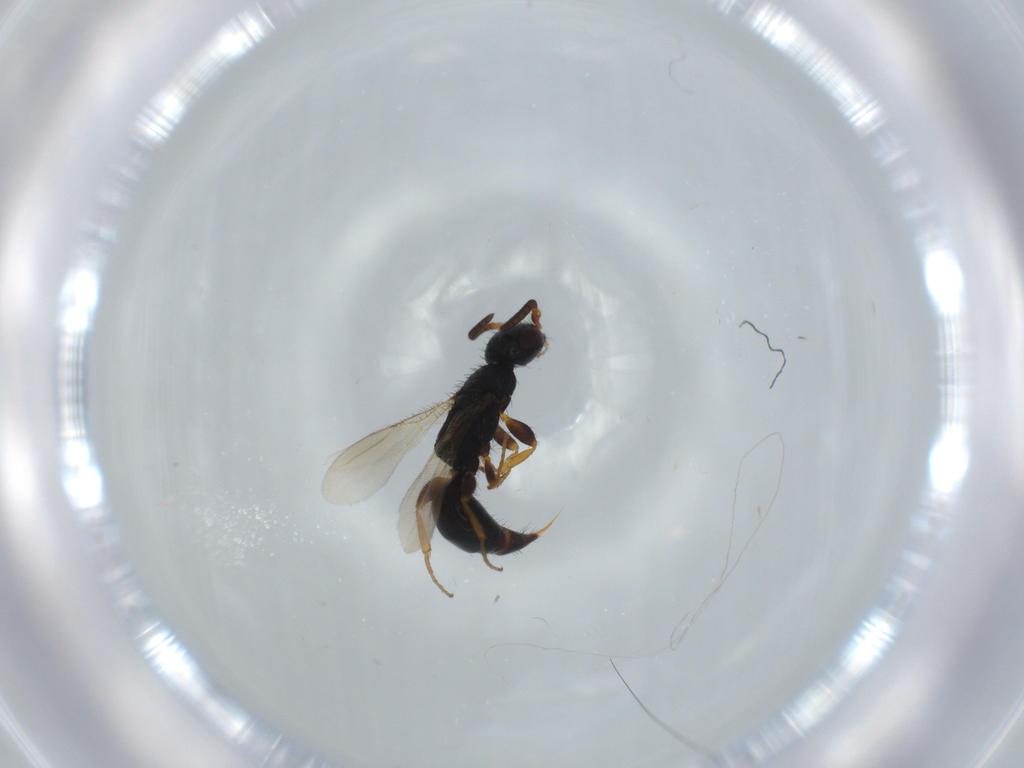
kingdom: Animalia
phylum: Arthropoda
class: Insecta
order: Hymenoptera
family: Bethylidae
